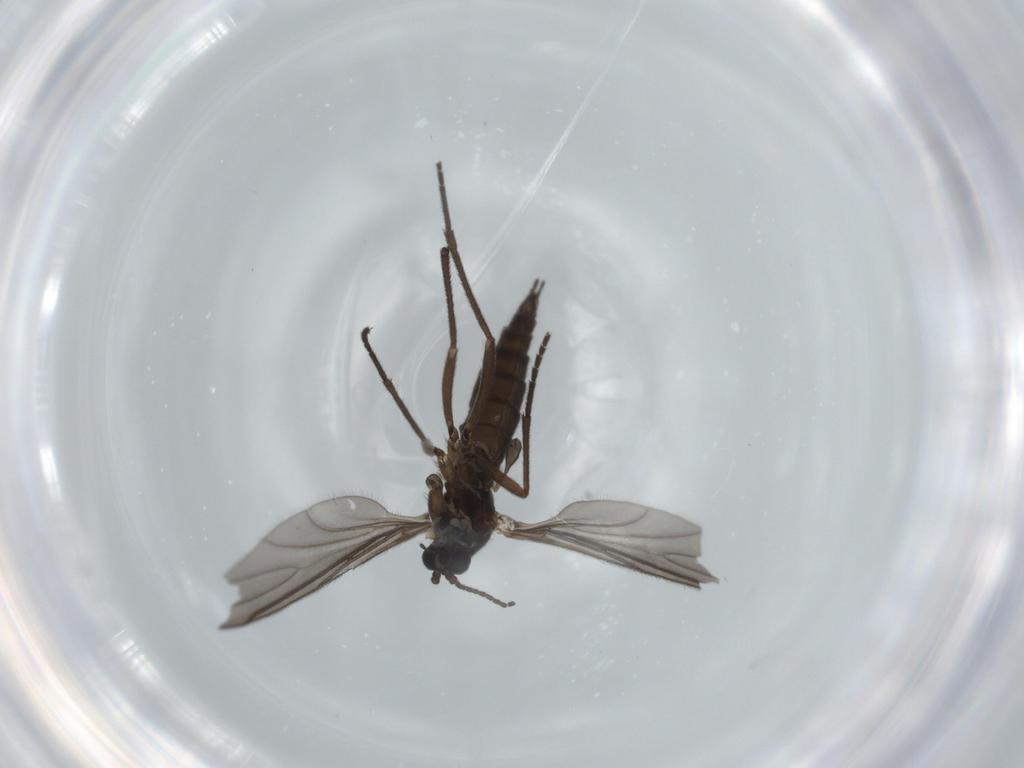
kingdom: Animalia
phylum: Arthropoda
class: Insecta
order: Diptera
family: Sciaridae
